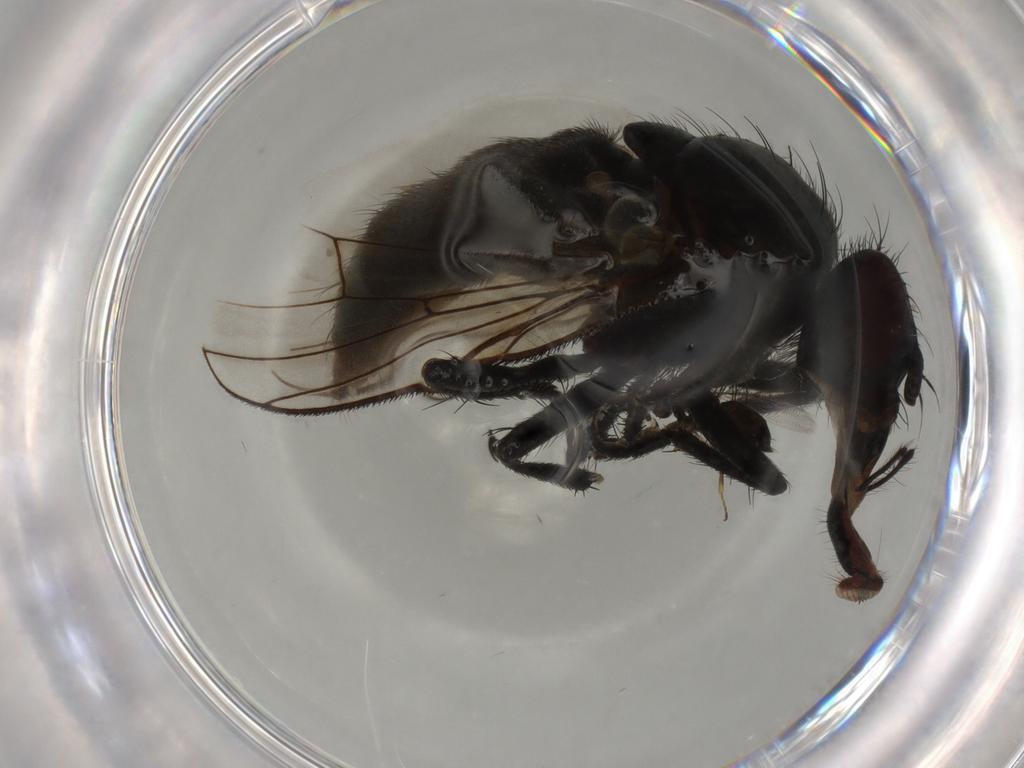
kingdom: Animalia
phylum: Arthropoda
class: Insecta
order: Diptera
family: Muscidae
